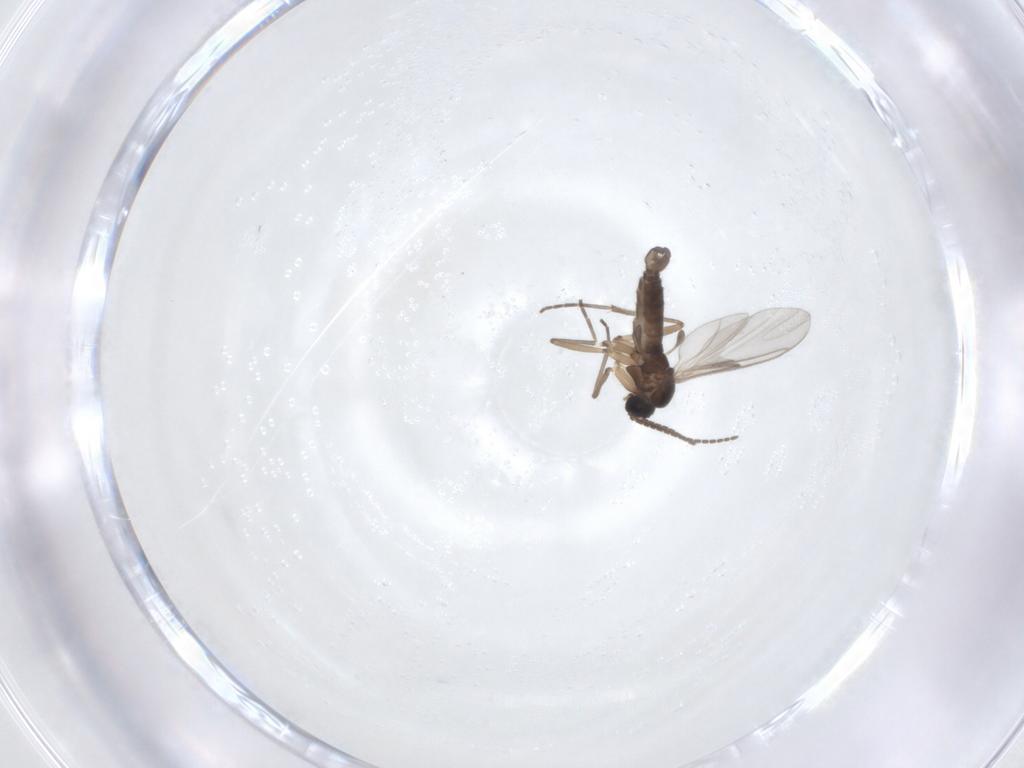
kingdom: Animalia
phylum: Arthropoda
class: Insecta
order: Diptera
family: Sciaridae
